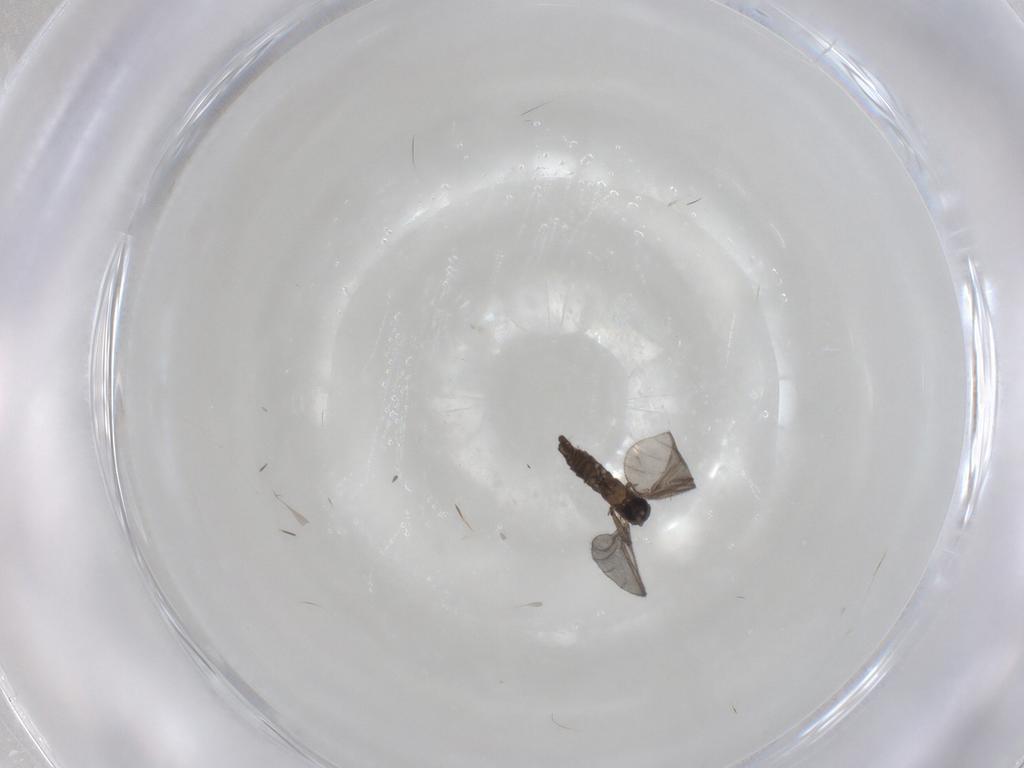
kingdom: Animalia
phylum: Arthropoda
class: Insecta
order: Diptera
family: Sciaridae
